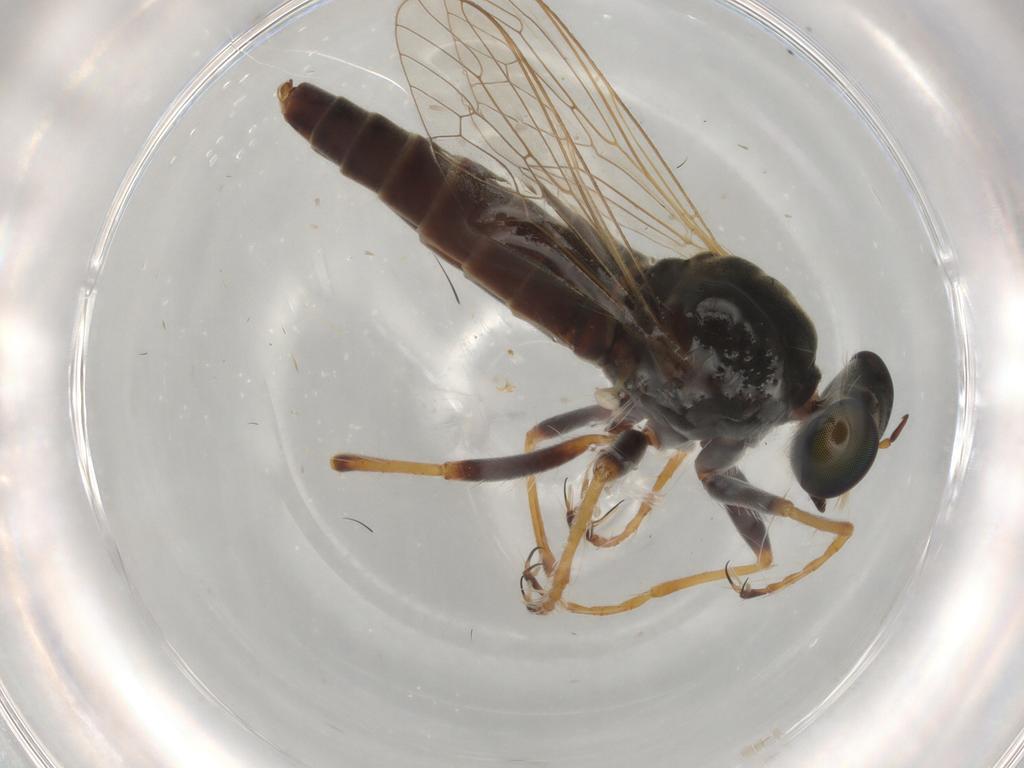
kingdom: Animalia
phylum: Arthropoda
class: Insecta
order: Diptera
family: Asilidae
